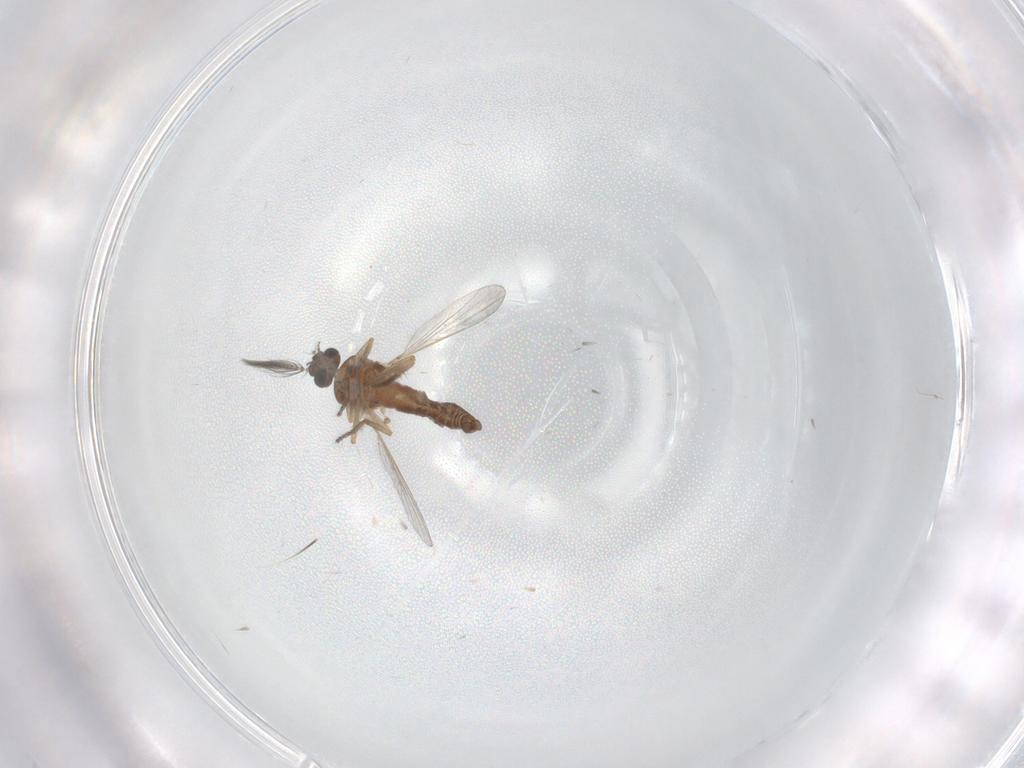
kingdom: Animalia
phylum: Arthropoda
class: Insecta
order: Diptera
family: Ceratopogonidae
